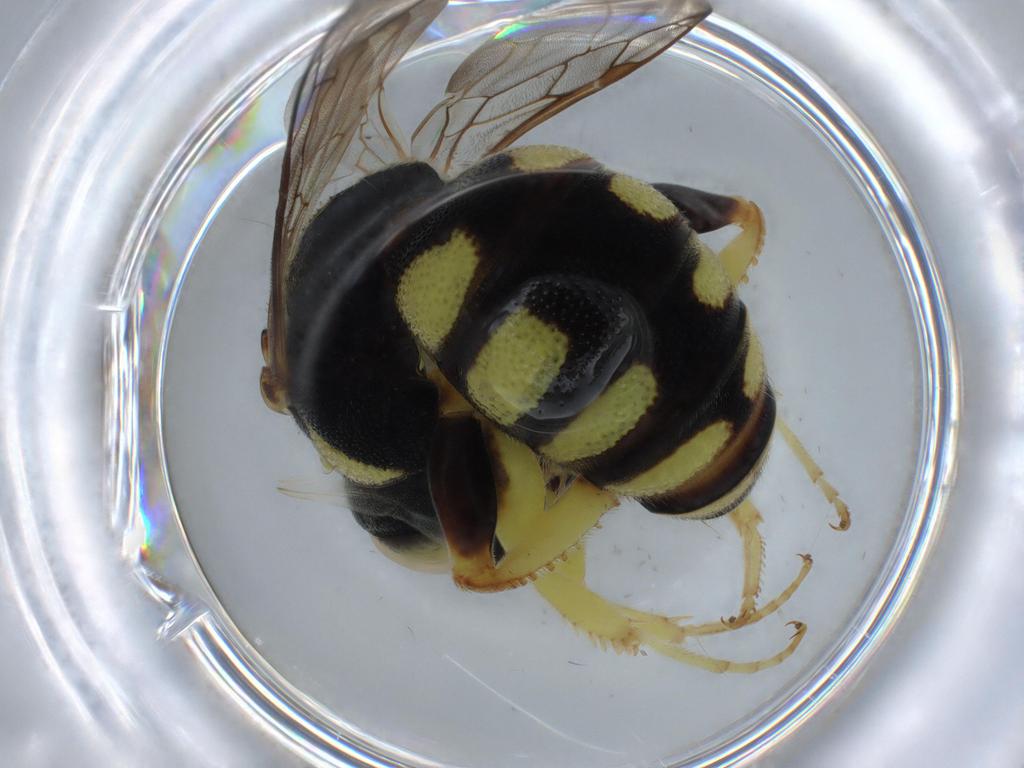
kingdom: Animalia
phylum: Arthropoda
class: Insecta
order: Hymenoptera
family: Formicidae
